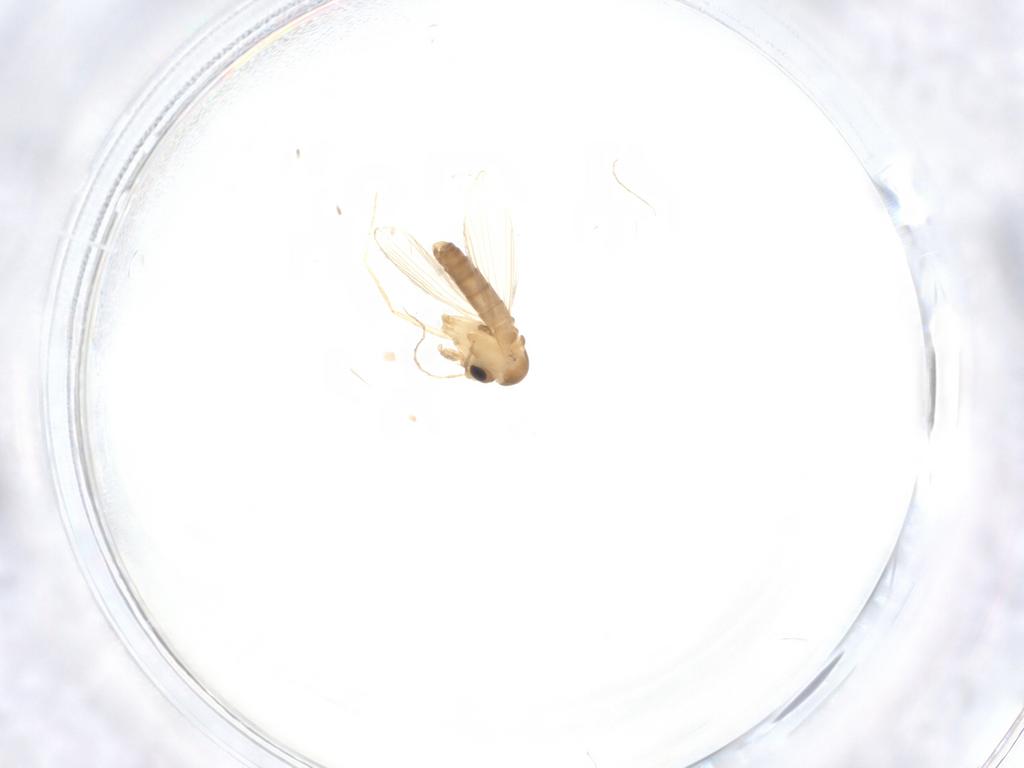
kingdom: Animalia
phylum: Arthropoda
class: Insecta
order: Diptera
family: Psychodidae
